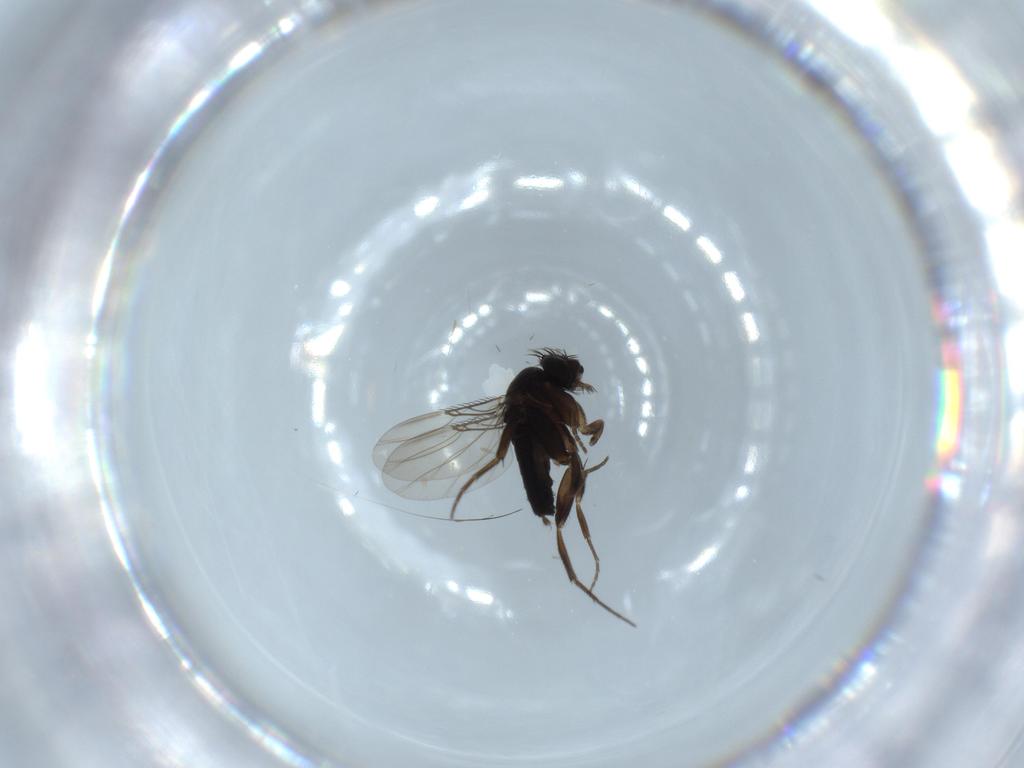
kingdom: Animalia
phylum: Arthropoda
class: Insecta
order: Diptera
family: Phoridae
